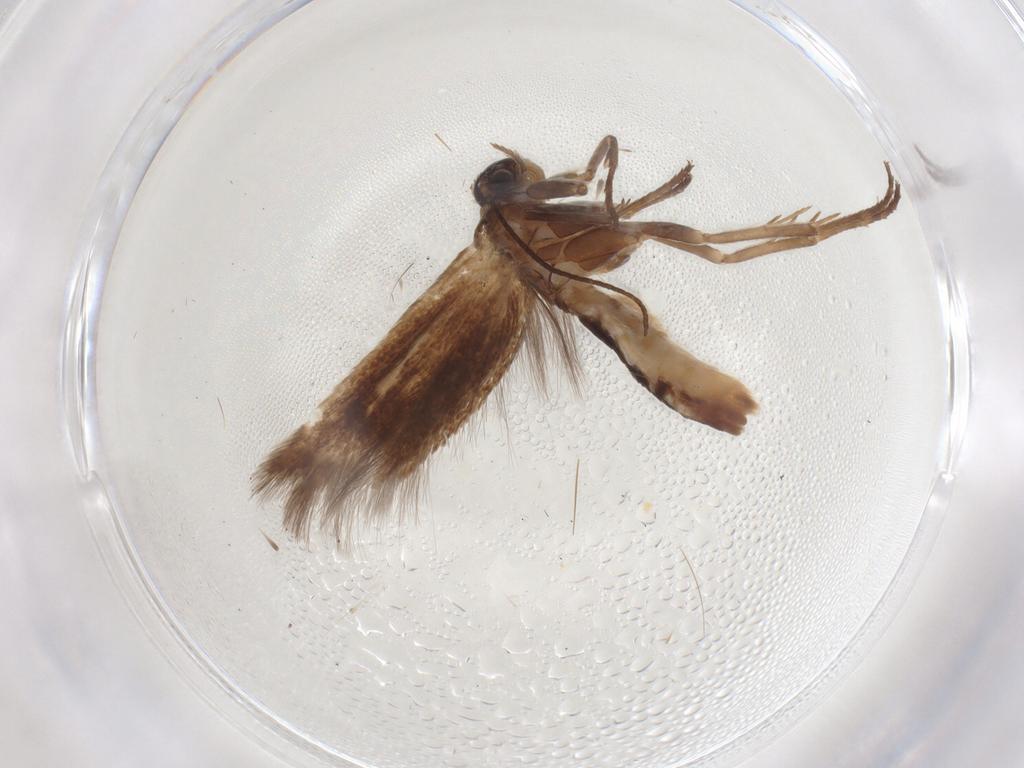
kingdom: Animalia
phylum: Arthropoda
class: Insecta
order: Lepidoptera
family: Scythrididae
